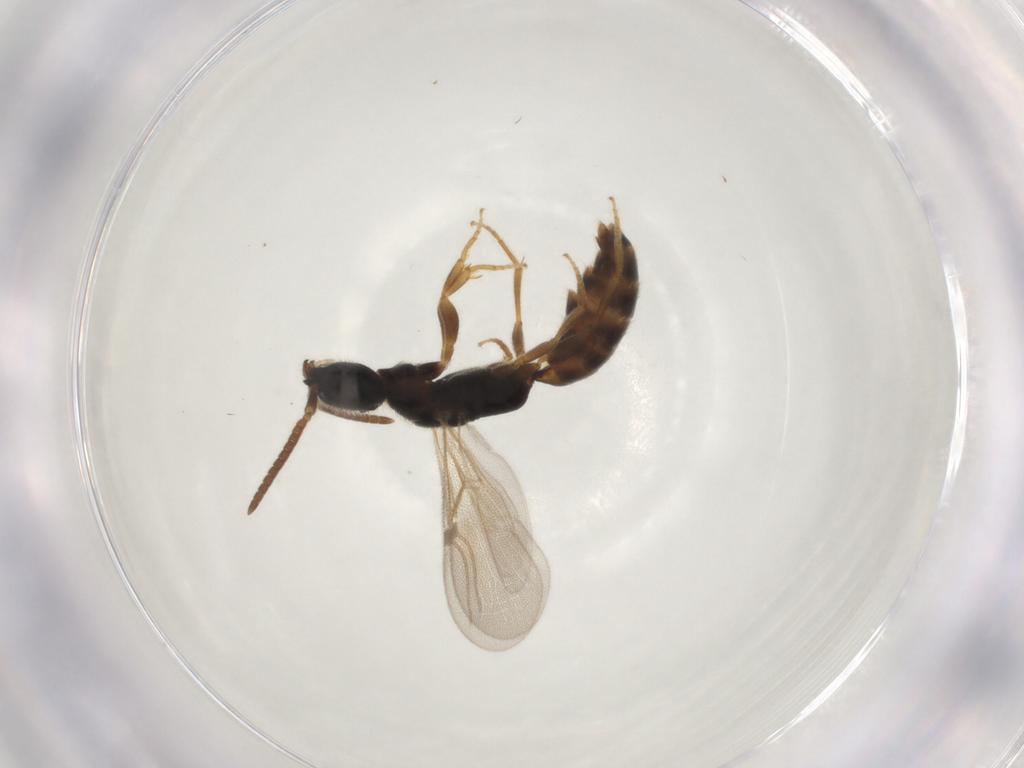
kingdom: Animalia
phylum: Arthropoda
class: Insecta
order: Hymenoptera
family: Bethylidae
